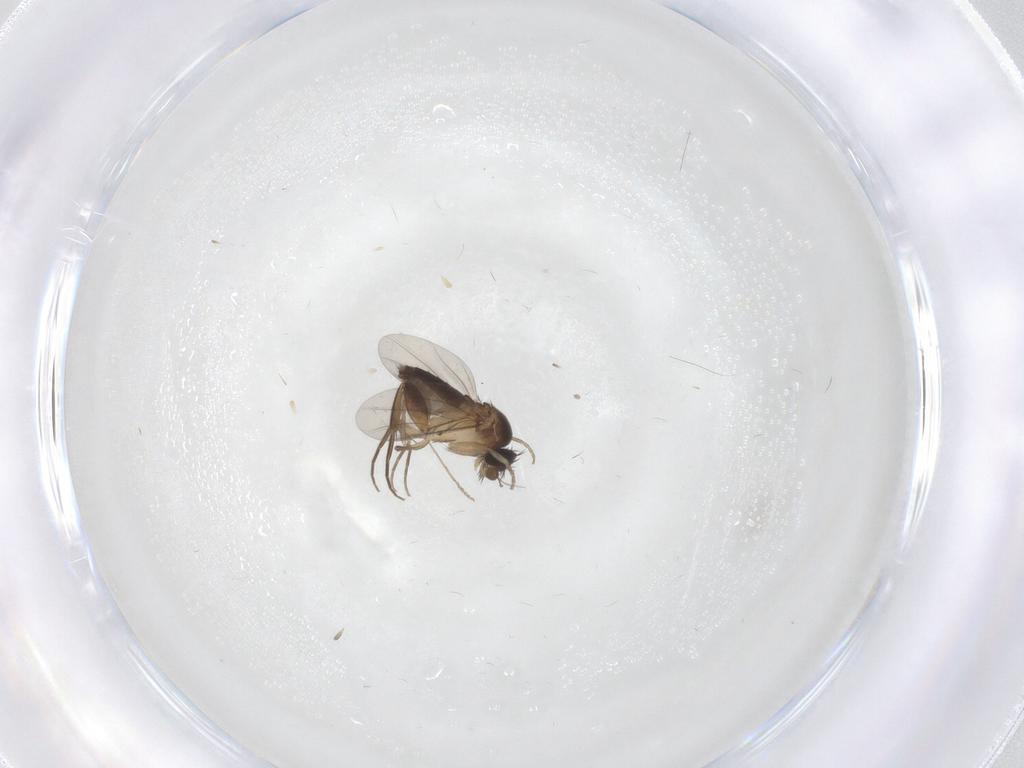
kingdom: Animalia
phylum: Arthropoda
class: Insecta
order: Diptera
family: Phoridae
